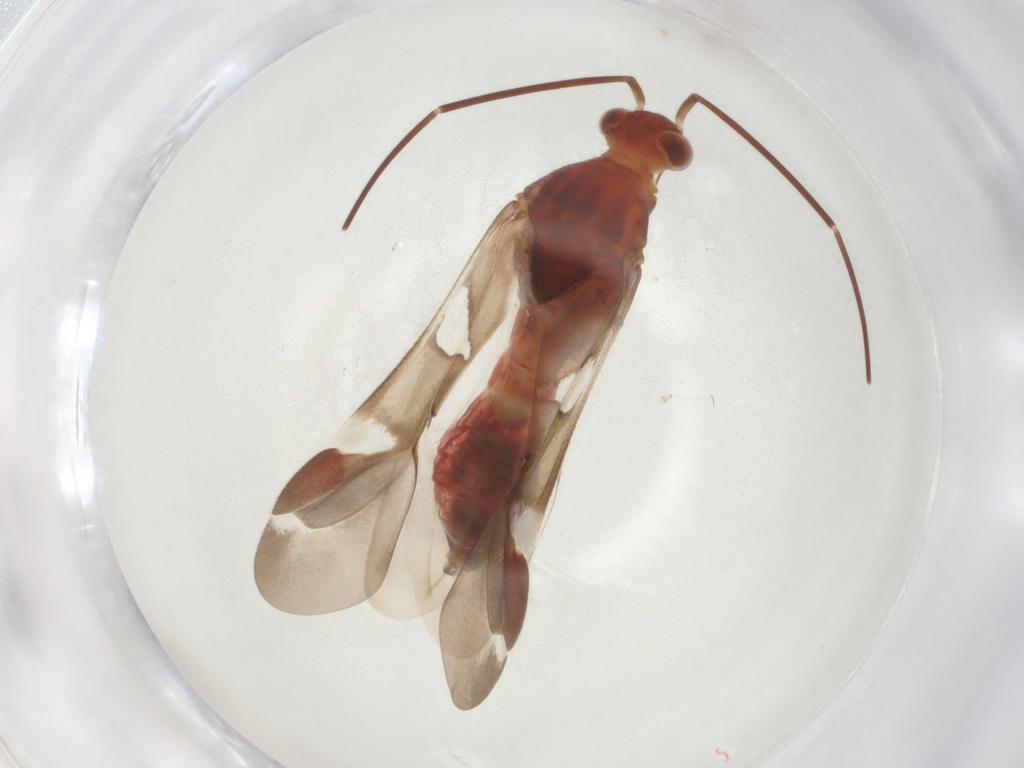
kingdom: Animalia
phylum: Arthropoda
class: Insecta
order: Hemiptera
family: Miridae
